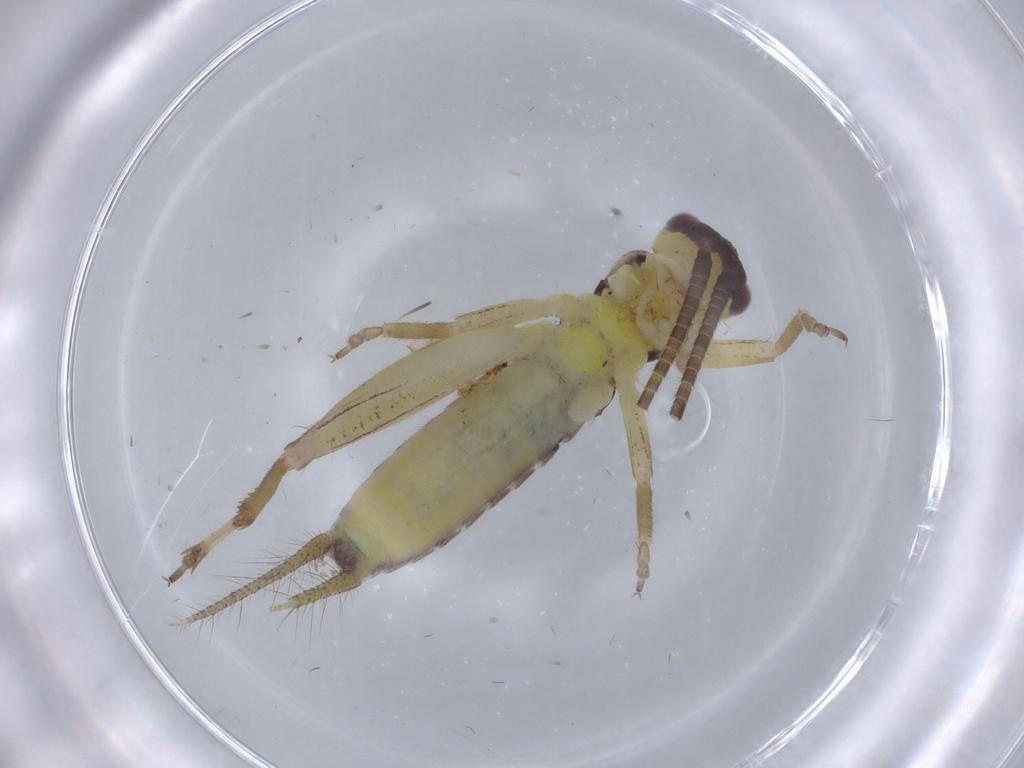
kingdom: Animalia
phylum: Arthropoda
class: Insecta
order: Orthoptera
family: Gryllidae
